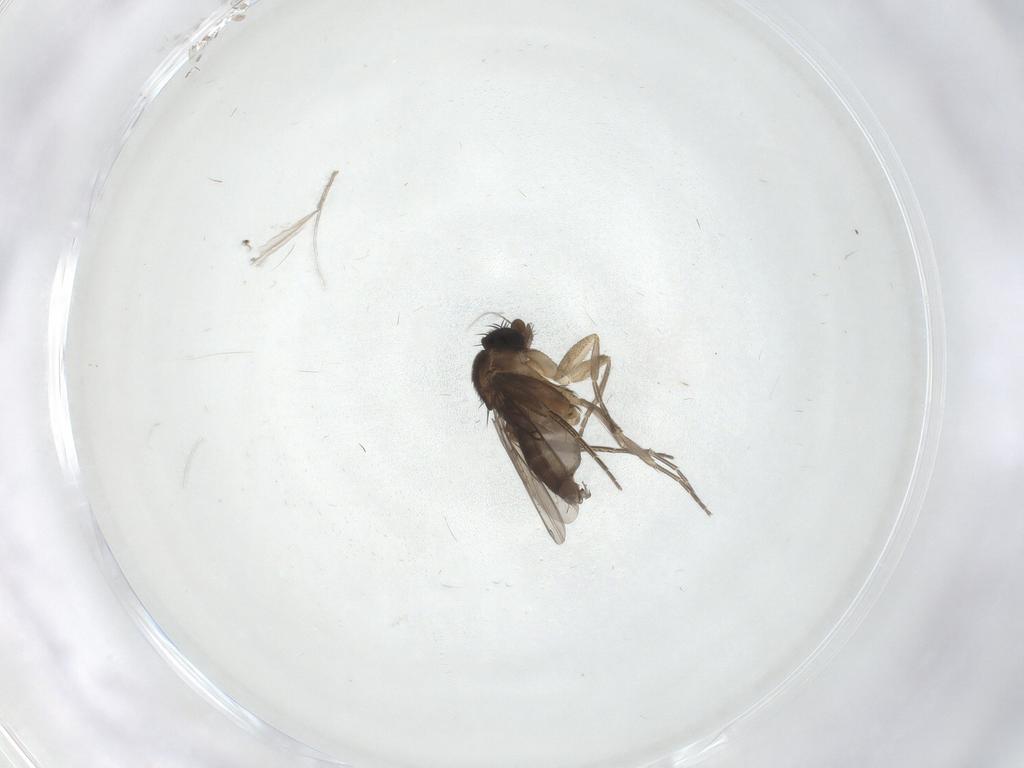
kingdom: Animalia
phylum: Arthropoda
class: Insecta
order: Diptera
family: Phoridae
